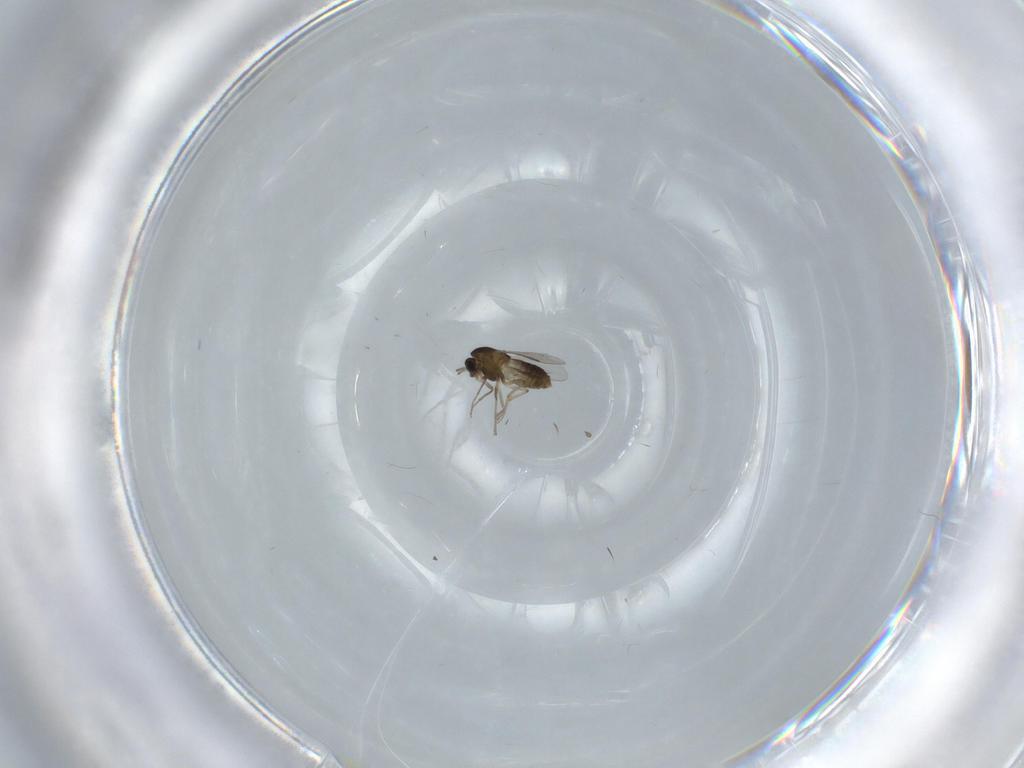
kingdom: Animalia
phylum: Arthropoda
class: Insecta
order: Diptera
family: Chironomidae
